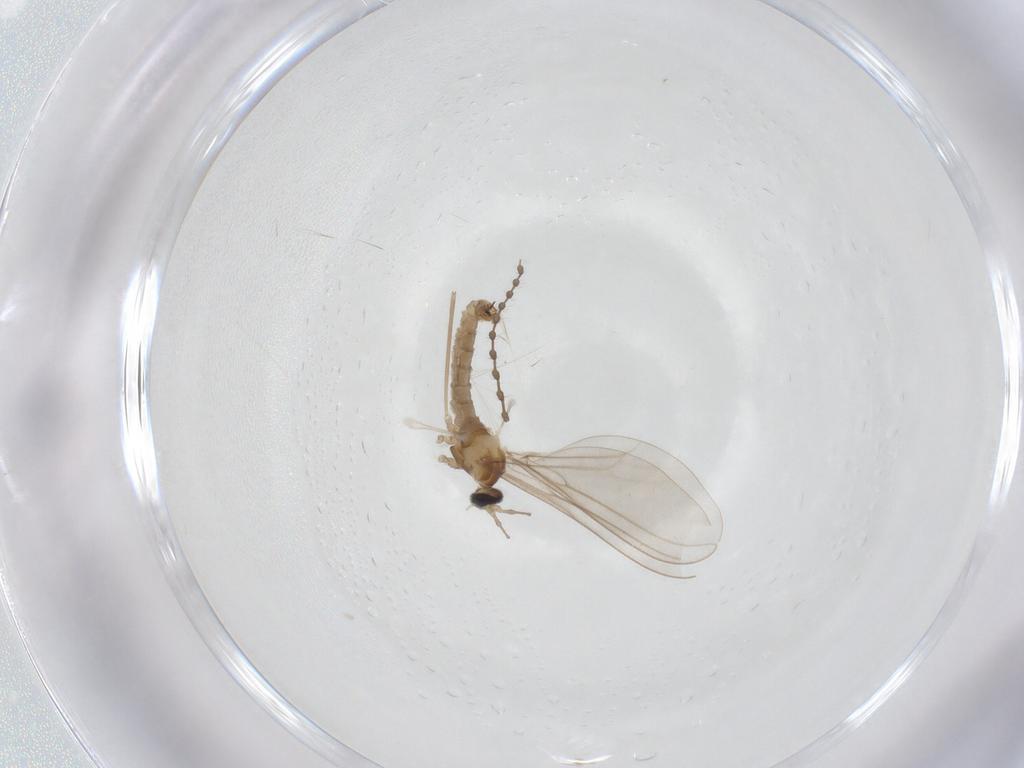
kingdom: Animalia
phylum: Arthropoda
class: Insecta
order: Diptera
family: Cecidomyiidae
